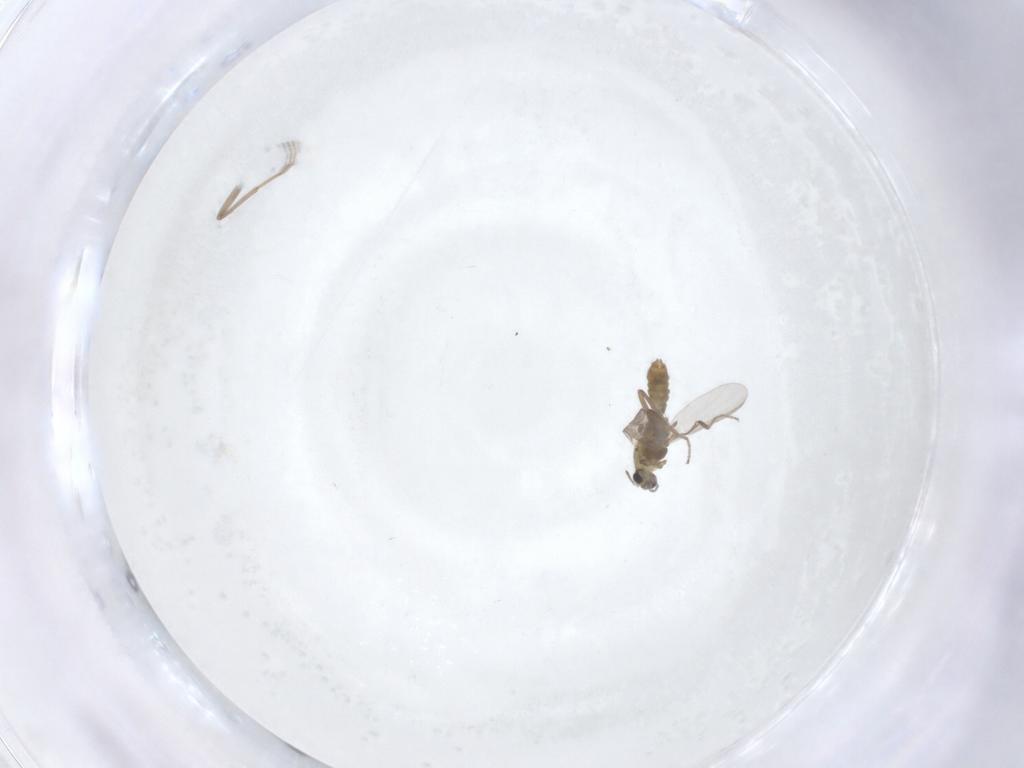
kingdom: Animalia
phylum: Arthropoda
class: Insecta
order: Diptera
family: Chironomidae
